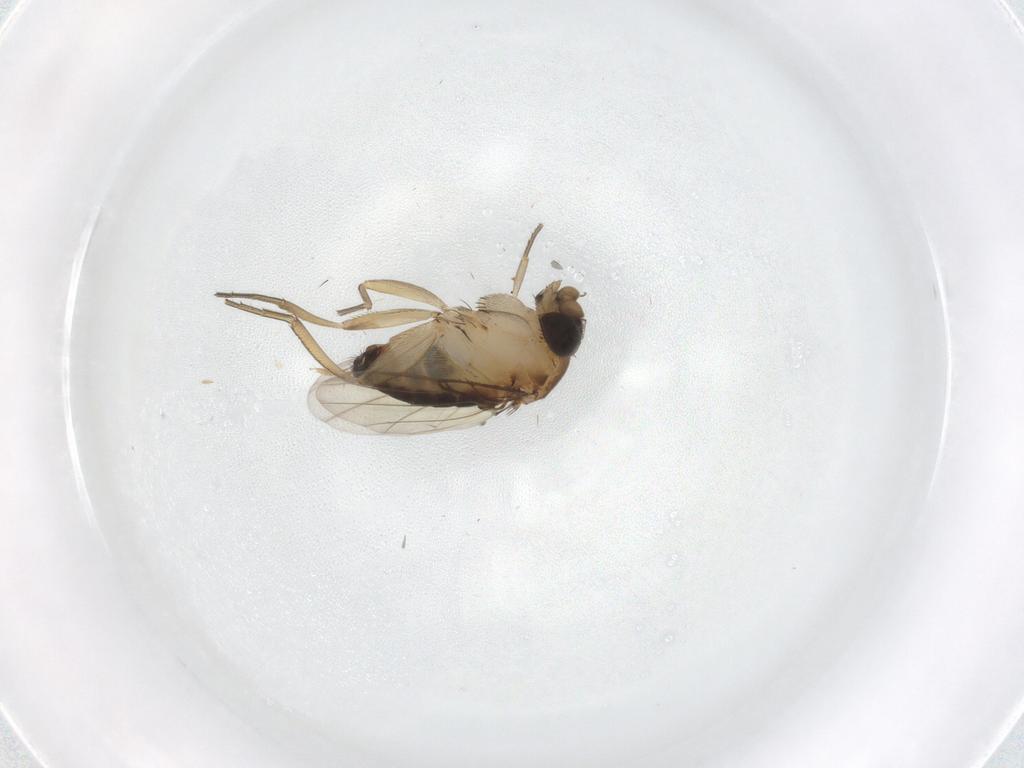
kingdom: Animalia
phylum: Arthropoda
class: Insecta
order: Diptera
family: Phoridae
